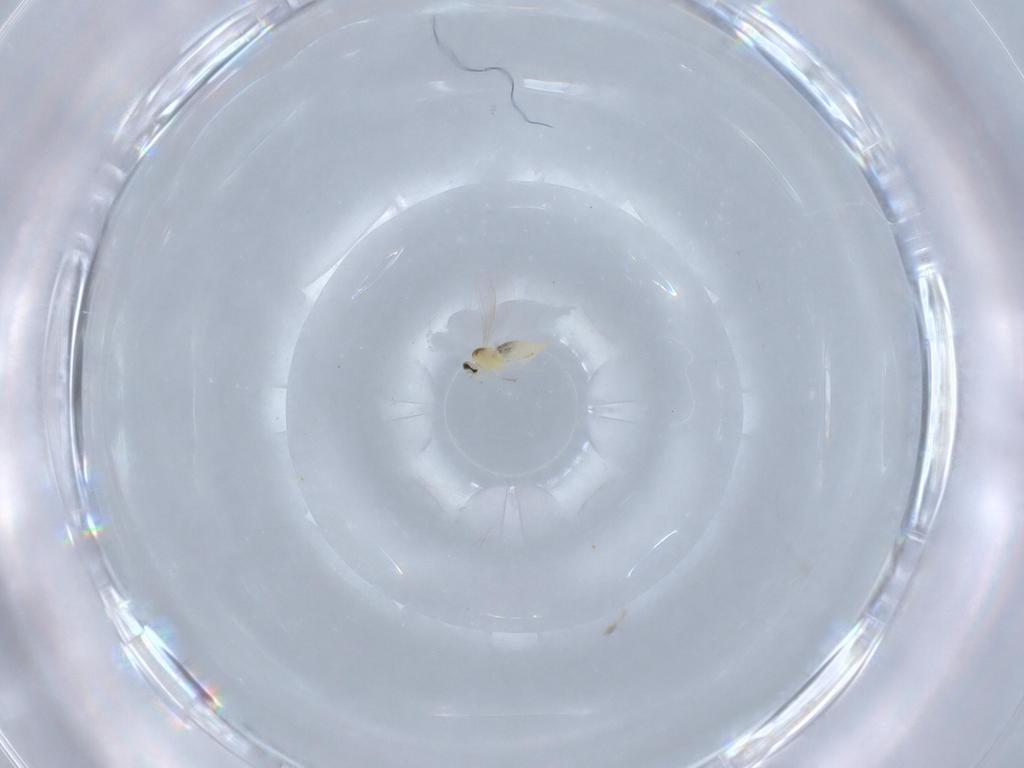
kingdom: Animalia
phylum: Arthropoda
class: Insecta
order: Diptera
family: Cecidomyiidae
